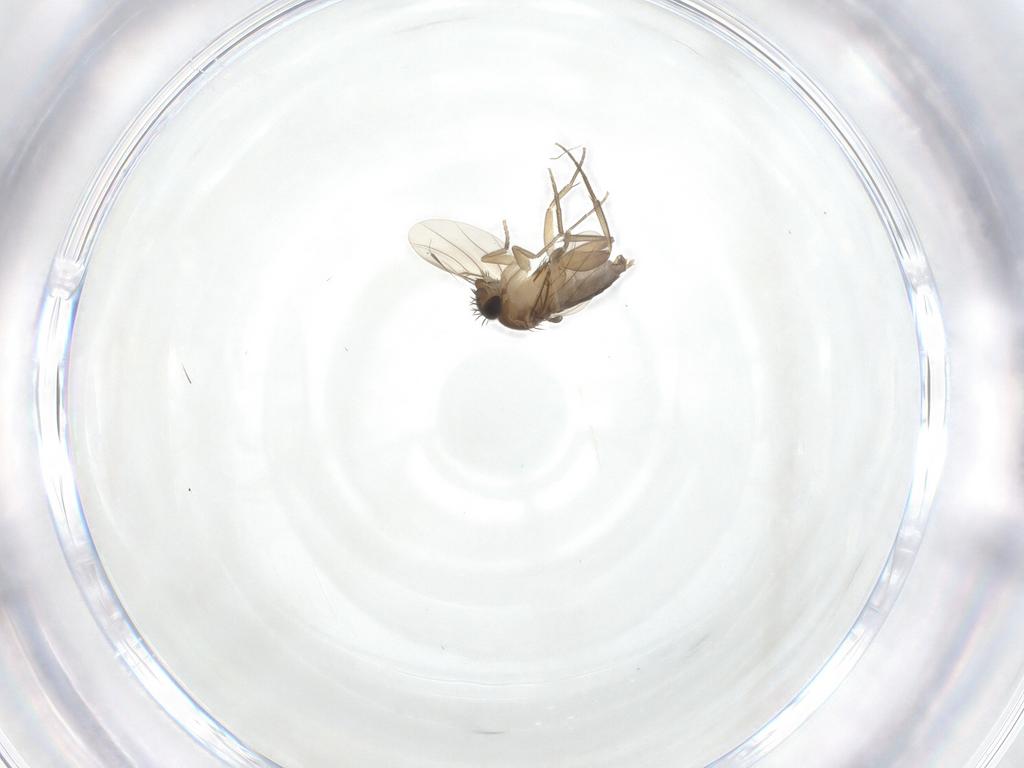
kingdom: Animalia
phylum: Arthropoda
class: Insecta
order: Diptera
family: Phoridae
